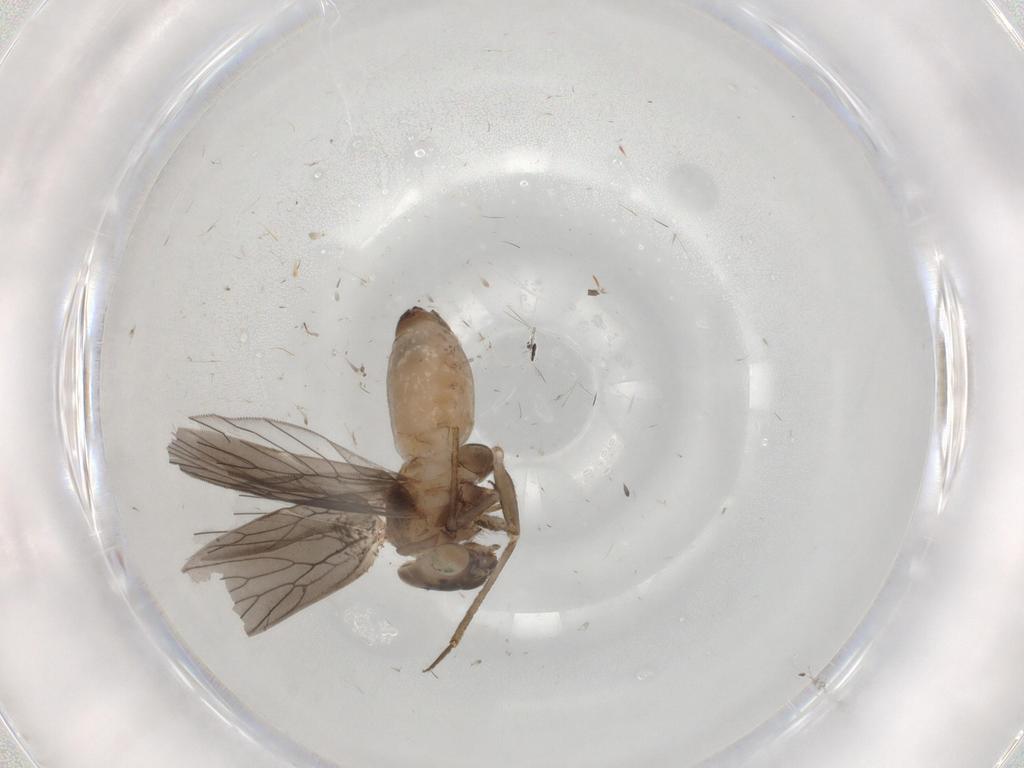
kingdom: Animalia
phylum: Arthropoda
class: Insecta
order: Psocodea
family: Lepidopsocidae
